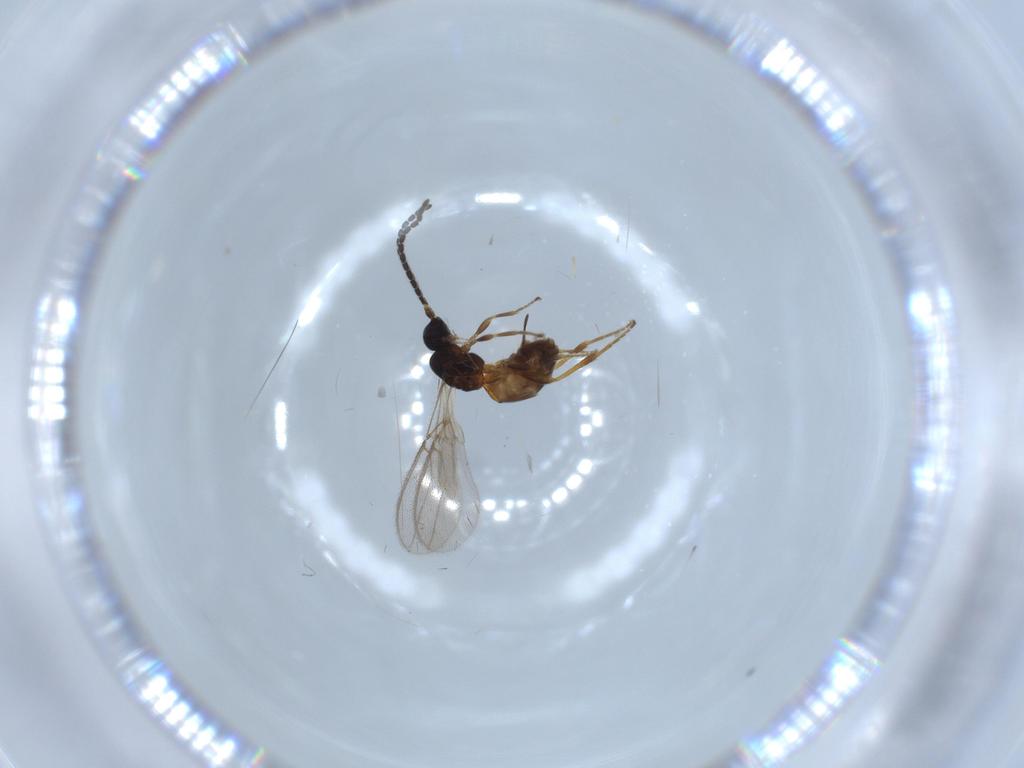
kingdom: Animalia
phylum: Arthropoda
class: Insecta
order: Hymenoptera
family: Braconidae
